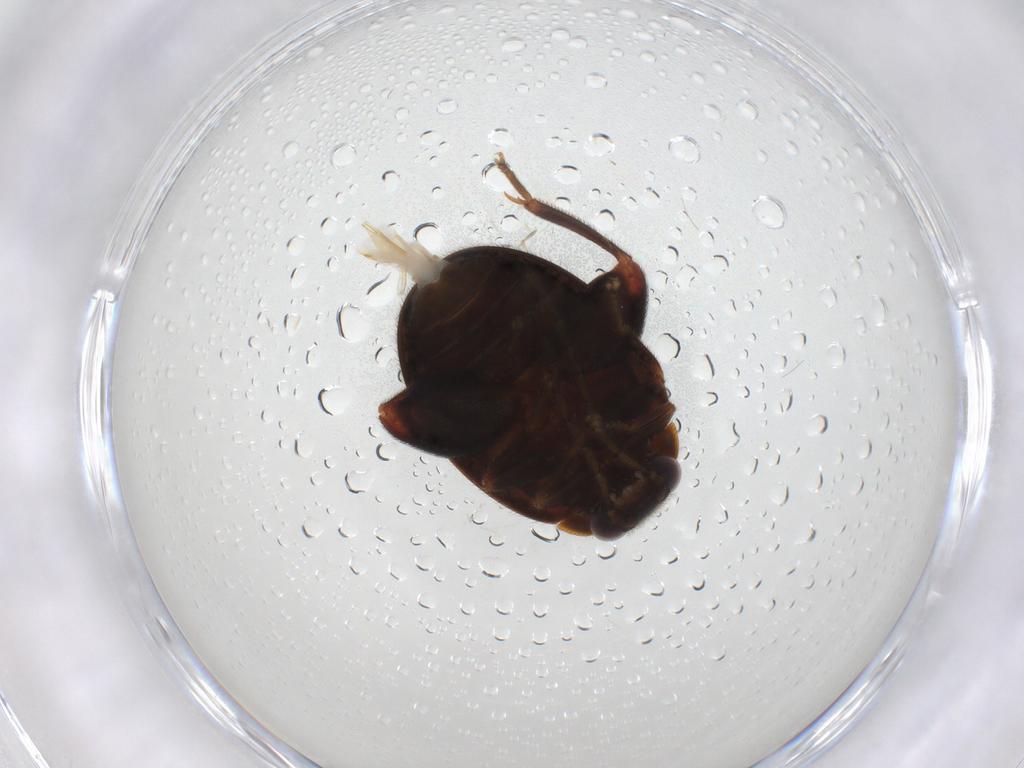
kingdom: Animalia
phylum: Arthropoda
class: Insecta
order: Coleoptera
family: Scirtidae
